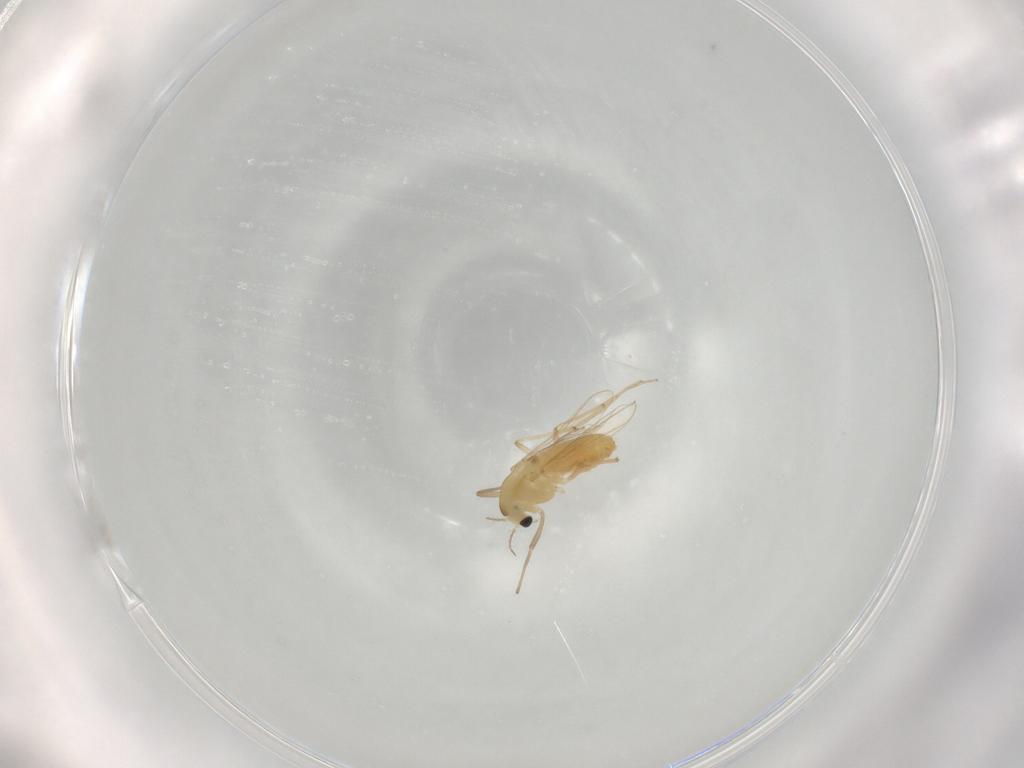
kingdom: Animalia
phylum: Arthropoda
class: Insecta
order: Diptera
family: Chironomidae
